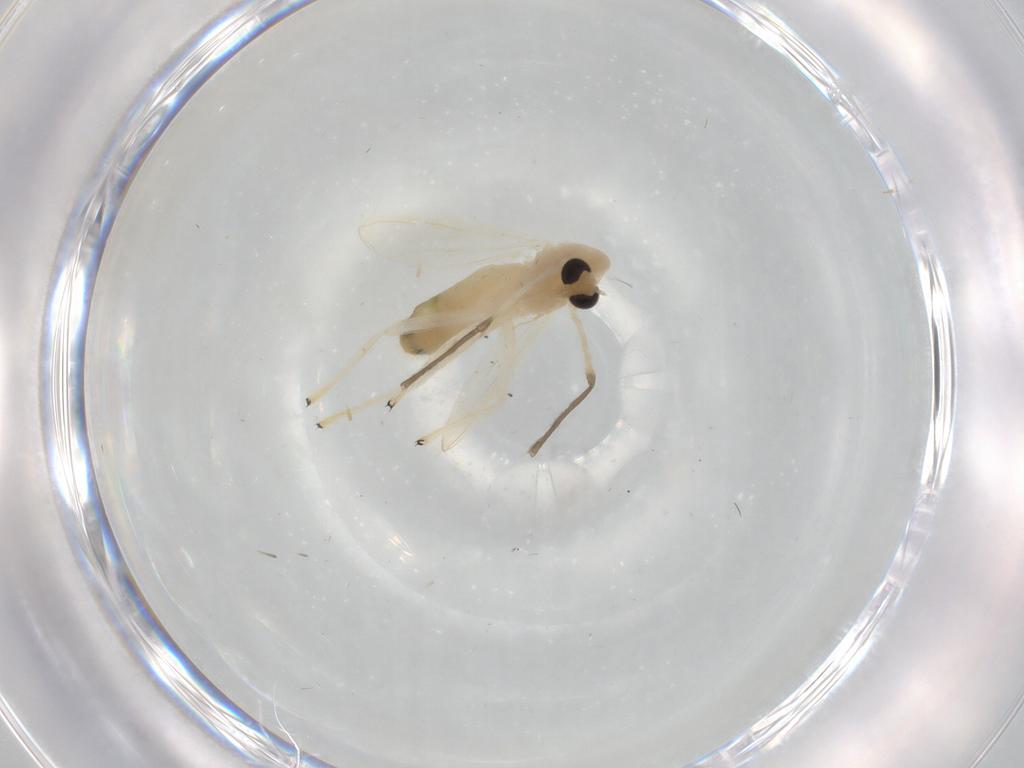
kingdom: Animalia
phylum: Arthropoda
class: Insecta
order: Diptera
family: Chironomidae
